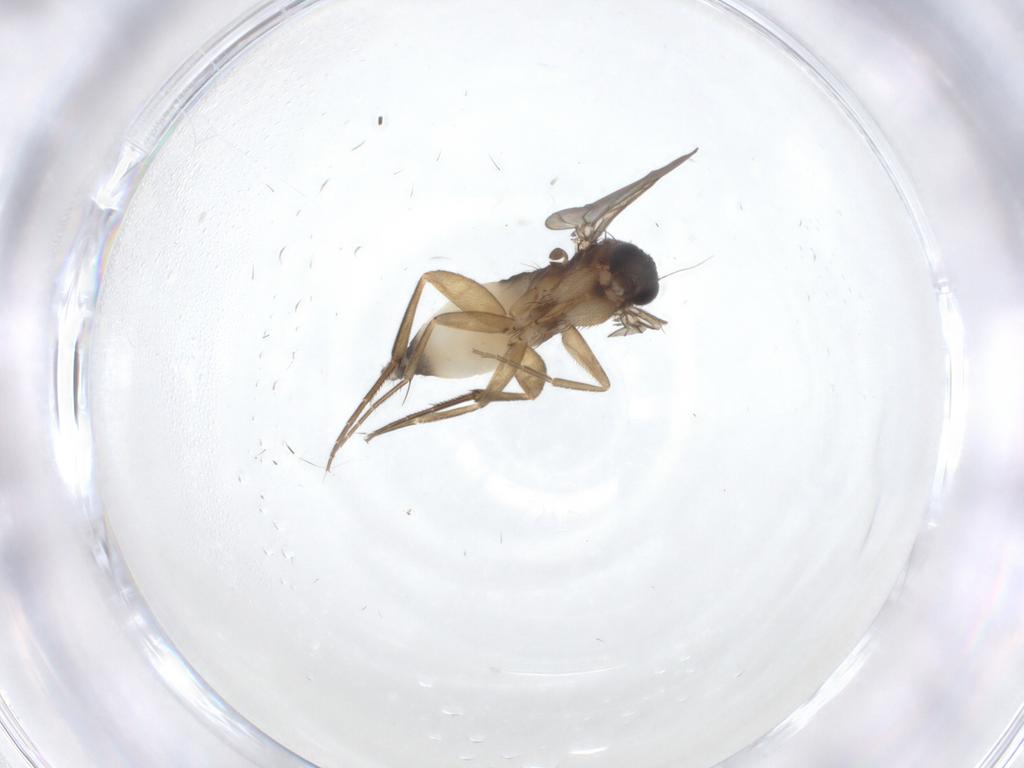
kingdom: Animalia
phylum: Arthropoda
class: Insecta
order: Diptera
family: Phoridae
